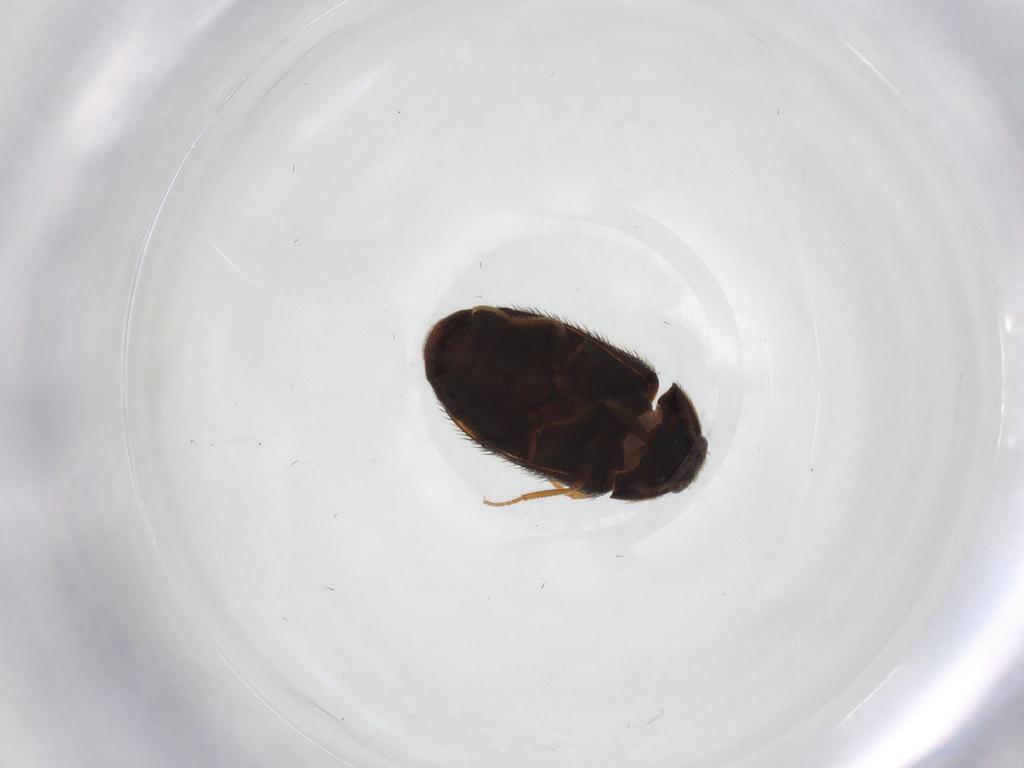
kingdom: Animalia
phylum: Arthropoda
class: Insecta
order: Coleoptera
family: Dermestidae
